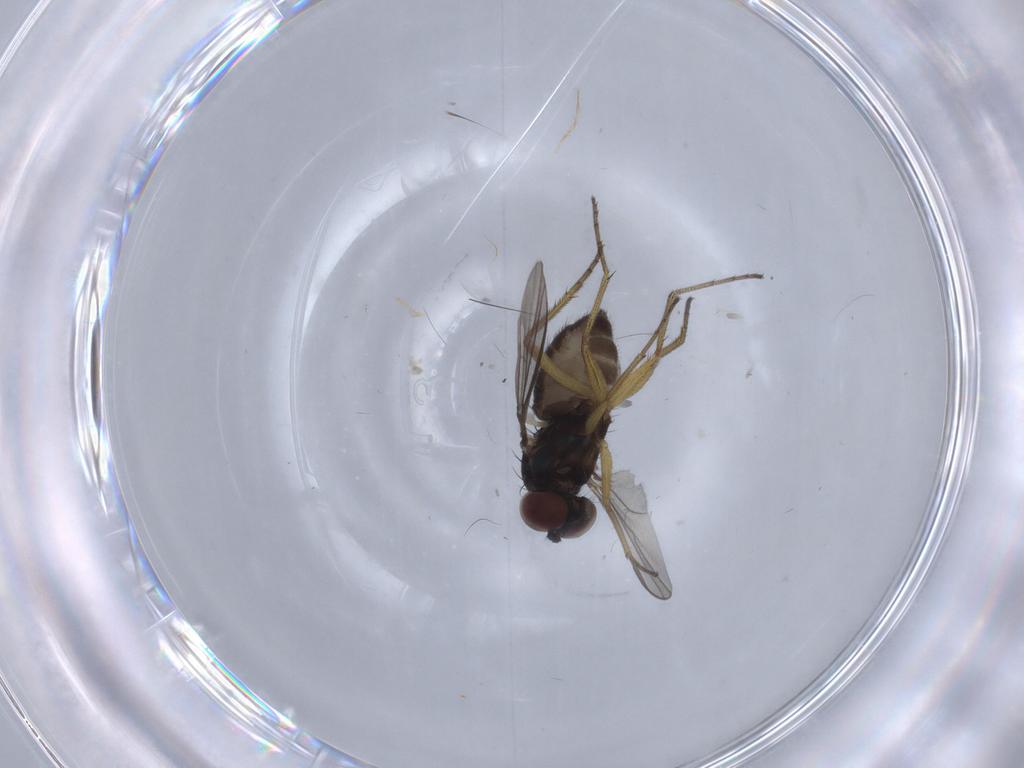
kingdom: Animalia
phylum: Arthropoda
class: Insecta
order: Diptera
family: Dolichopodidae
